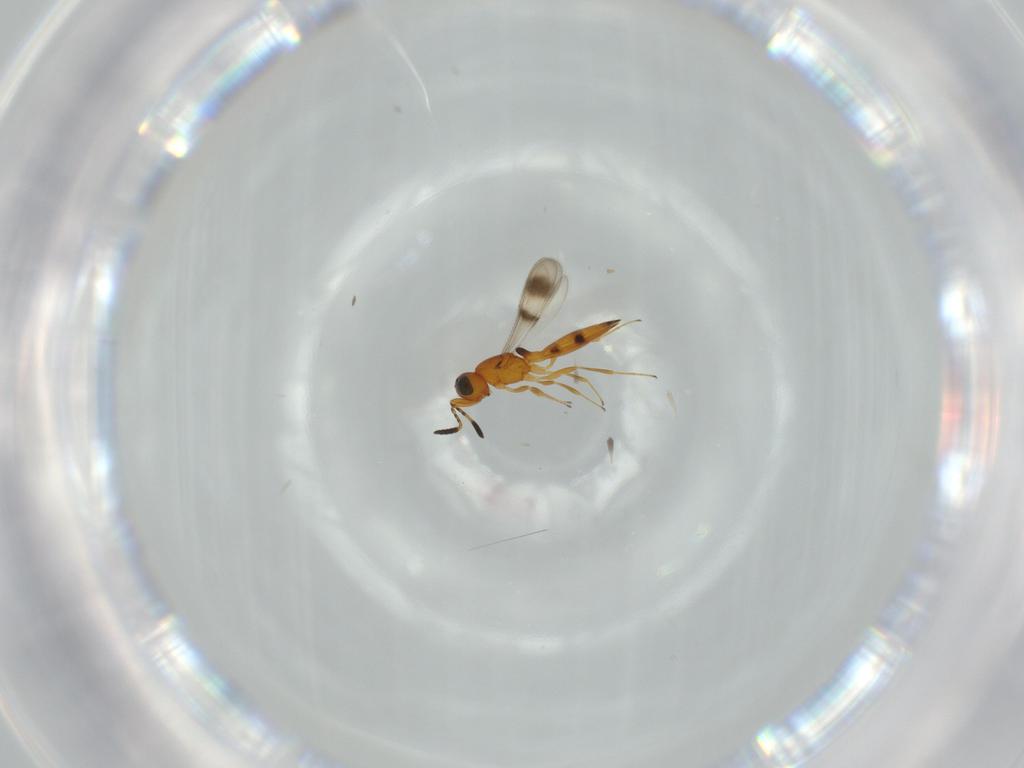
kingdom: Animalia
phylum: Arthropoda
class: Insecta
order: Hymenoptera
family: Scelionidae
